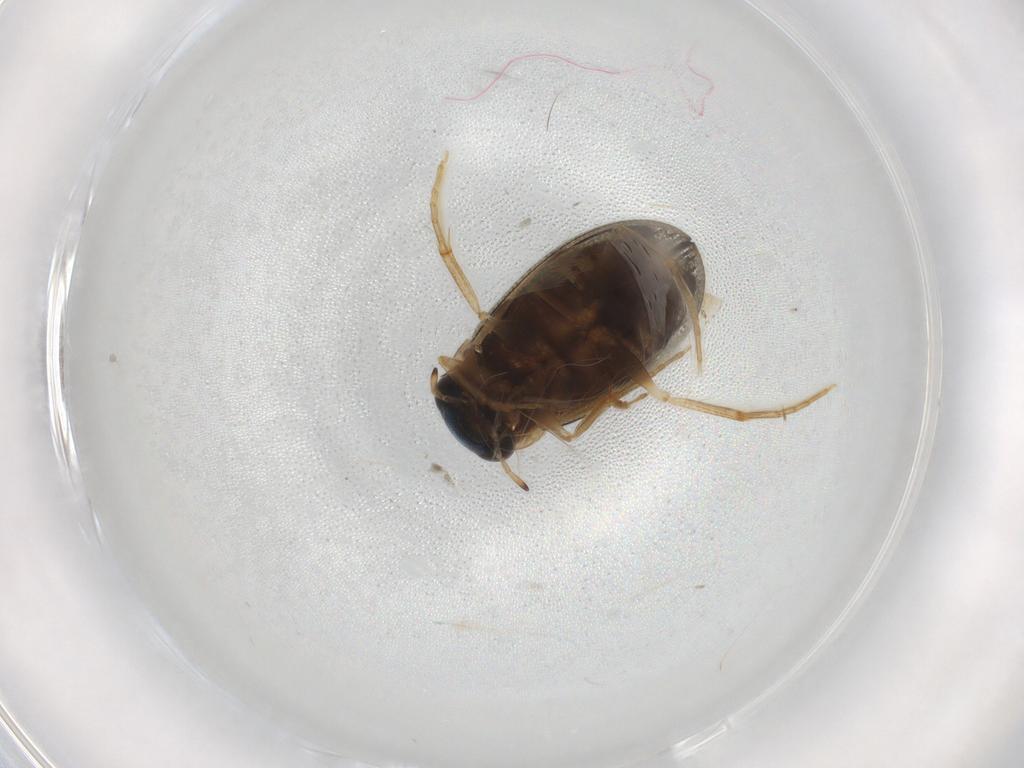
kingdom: Animalia
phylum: Arthropoda
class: Insecta
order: Coleoptera
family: Hydrophilidae
